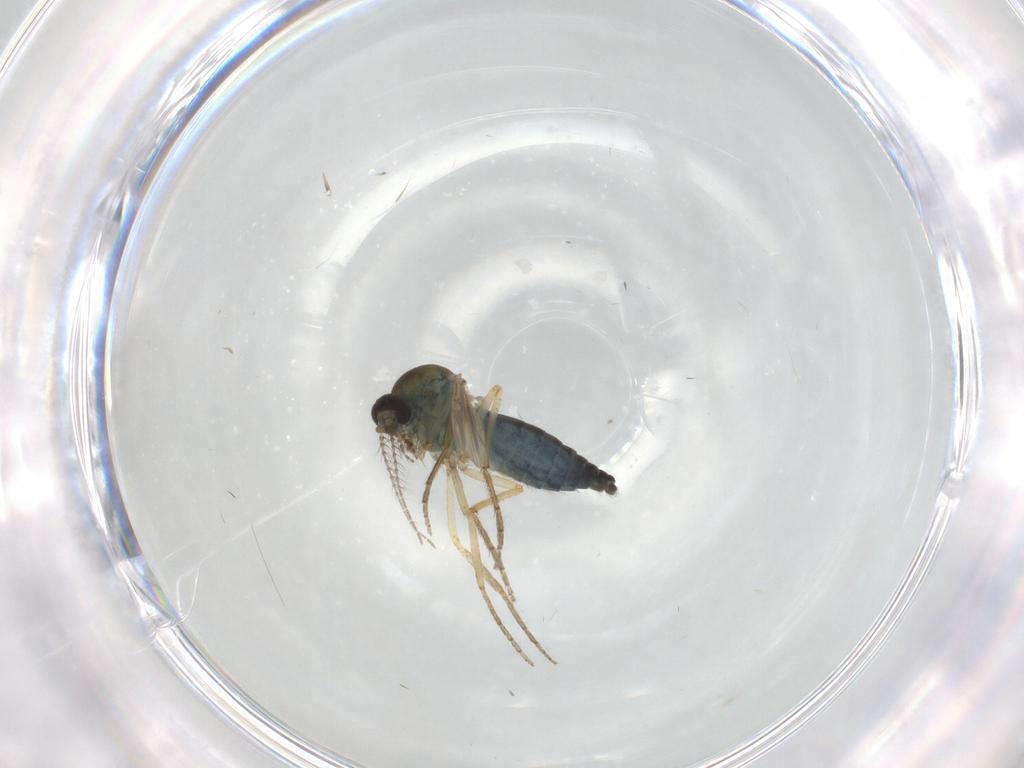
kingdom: Animalia
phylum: Arthropoda
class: Insecta
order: Diptera
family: Ceratopogonidae
